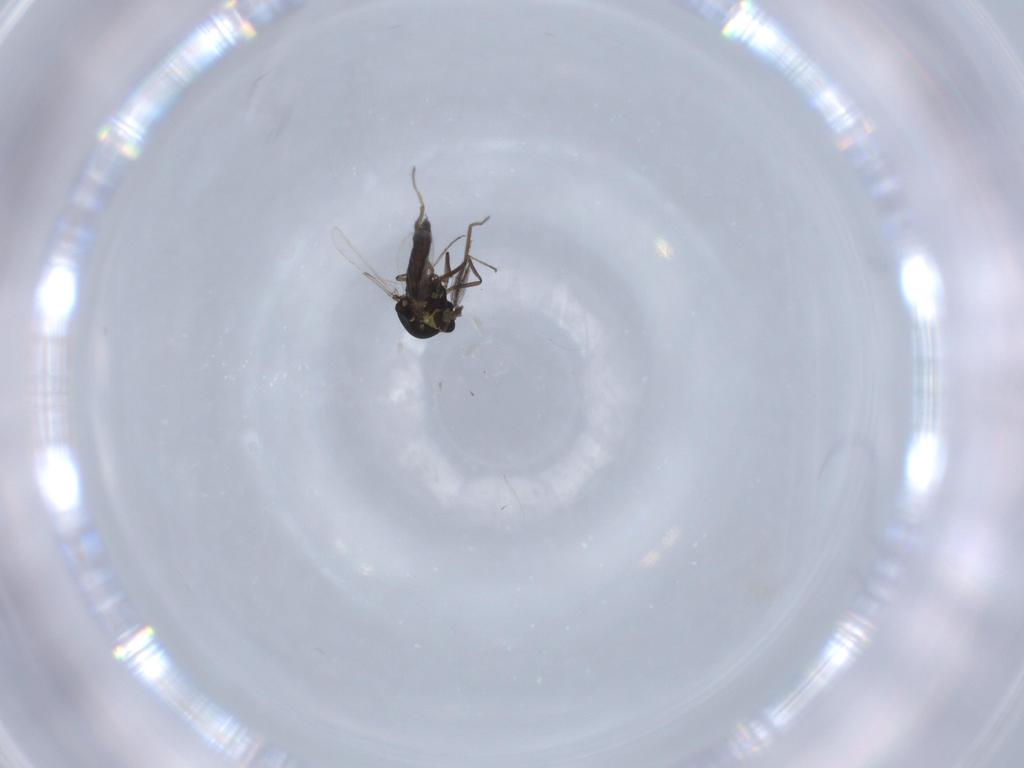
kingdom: Animalia
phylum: Arthropoda
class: Insecta
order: Diptera
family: Ceratopogonidae
